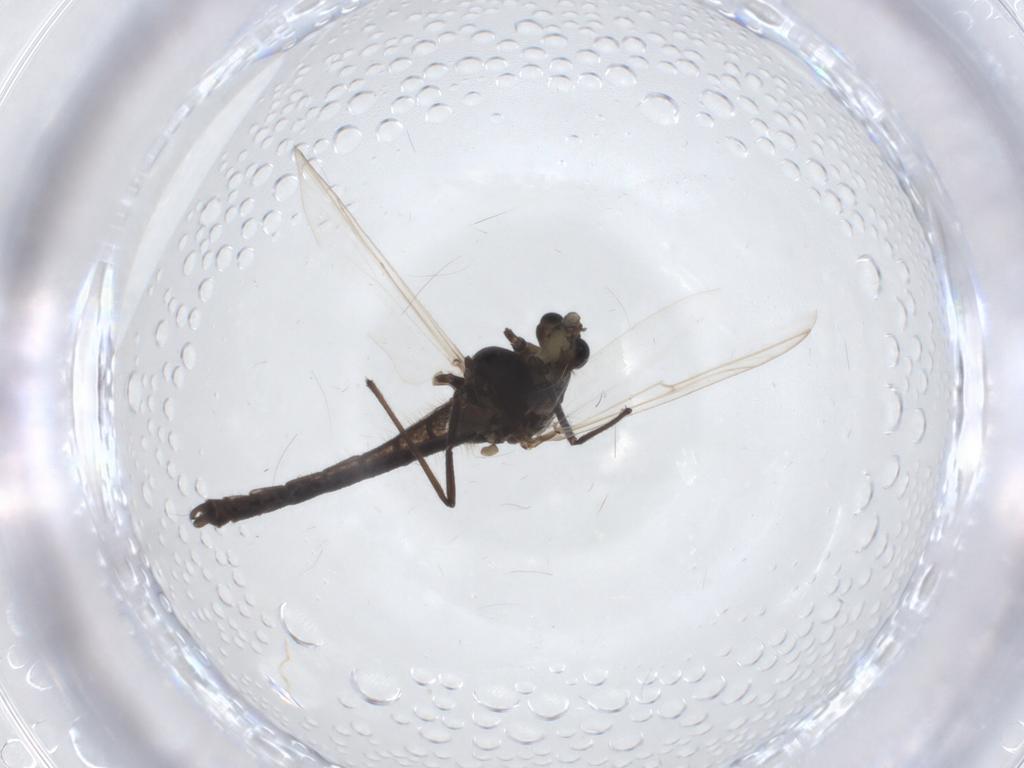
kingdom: Animalia
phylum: Arthropoda
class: Insecta
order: Diptera
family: Chironomidae
